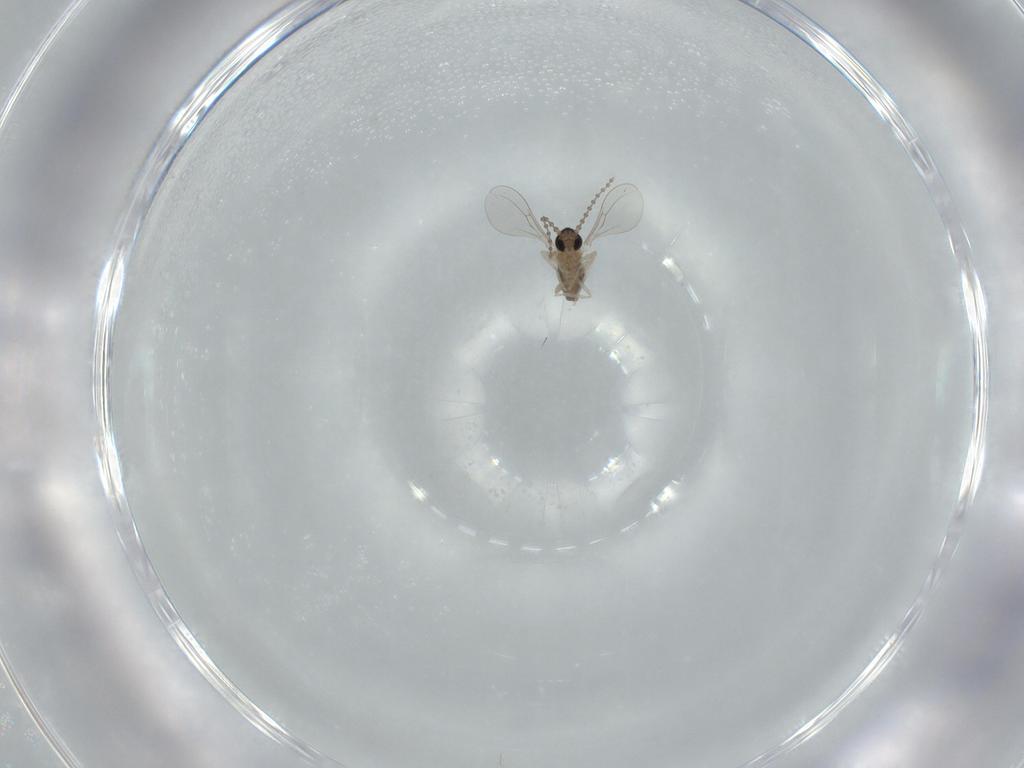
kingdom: Animalia
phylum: Arthropoda
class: Insecta
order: Diptera
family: Cecidomyiidae
